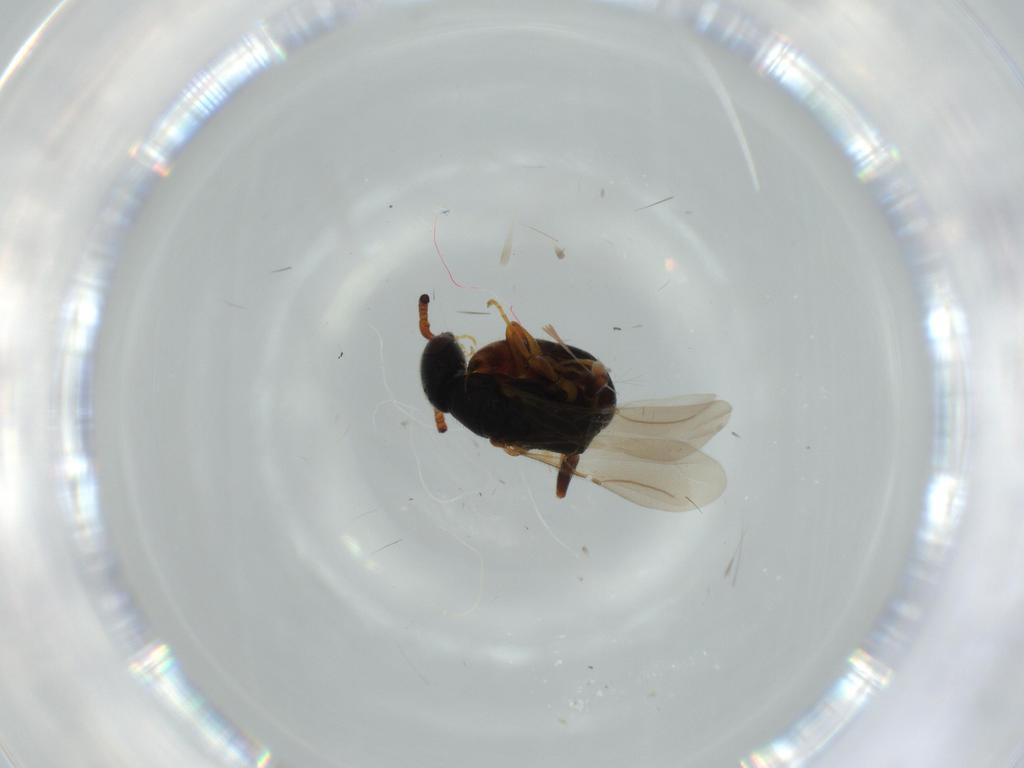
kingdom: Animalia
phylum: Arthropoda
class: Insecta
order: Hymenoptera
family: Bethylidae
